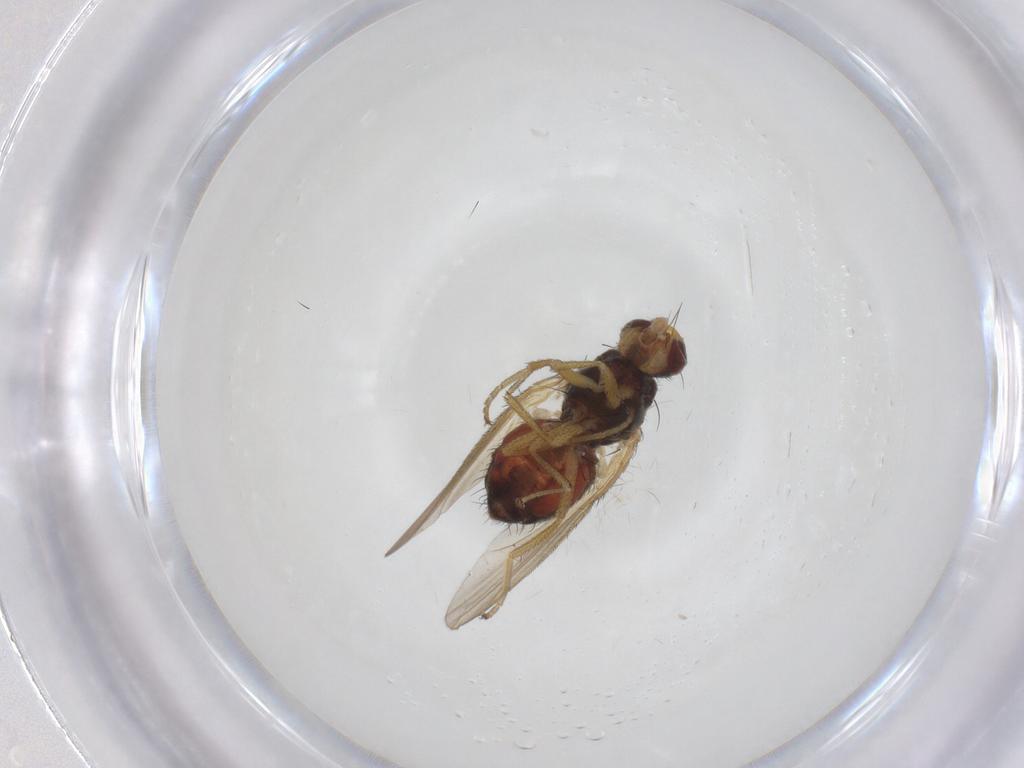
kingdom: Animalia
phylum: Arthropoda
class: Insecta
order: Diptera
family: Heleomyzidae
